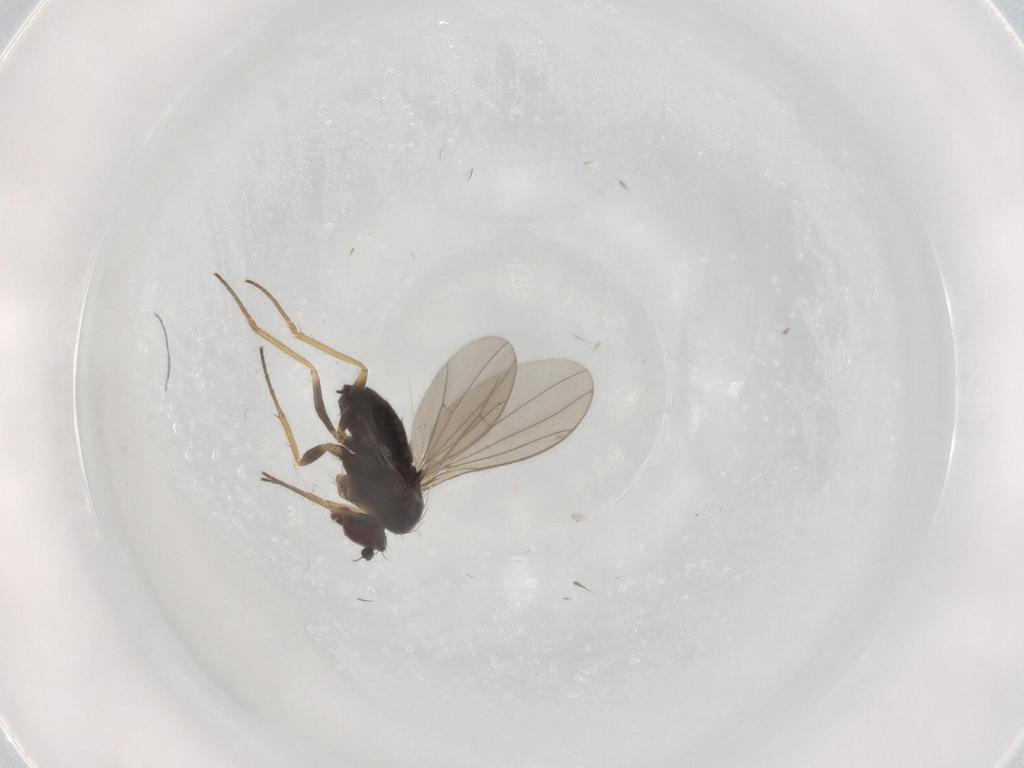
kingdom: Animalia
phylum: Arthropoda
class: Insecta
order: Diptera
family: Dolichopodidae
